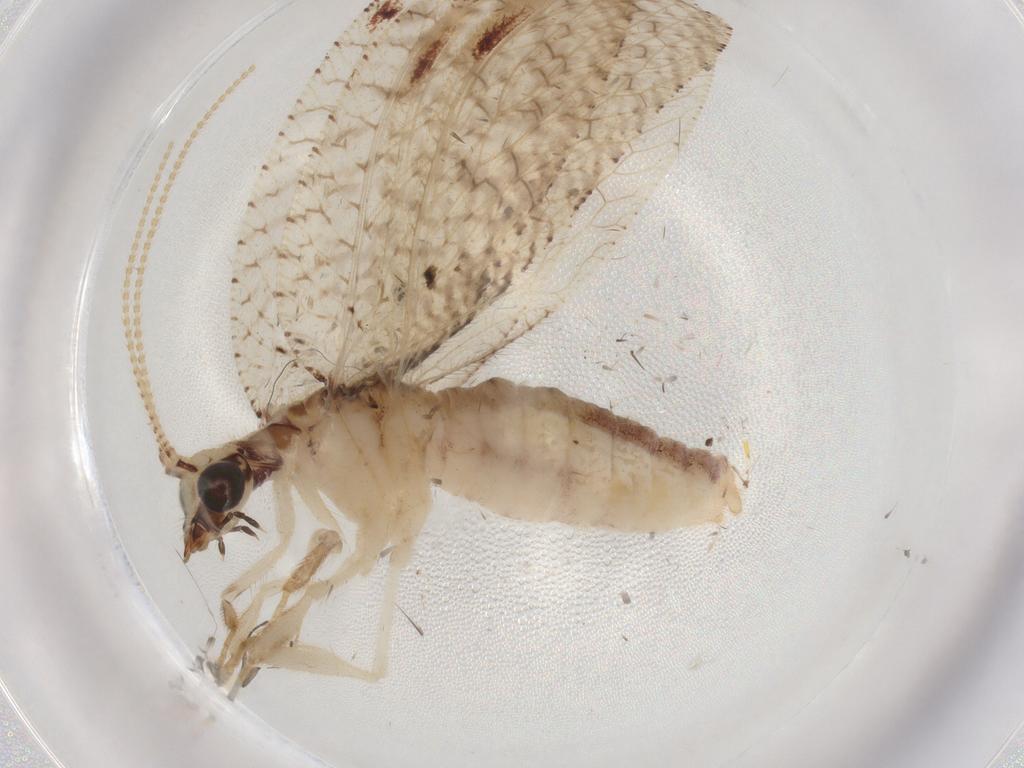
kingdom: Animalia
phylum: Arthropoda
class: Insecta
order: Neuroptera
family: Hemerobiidae
